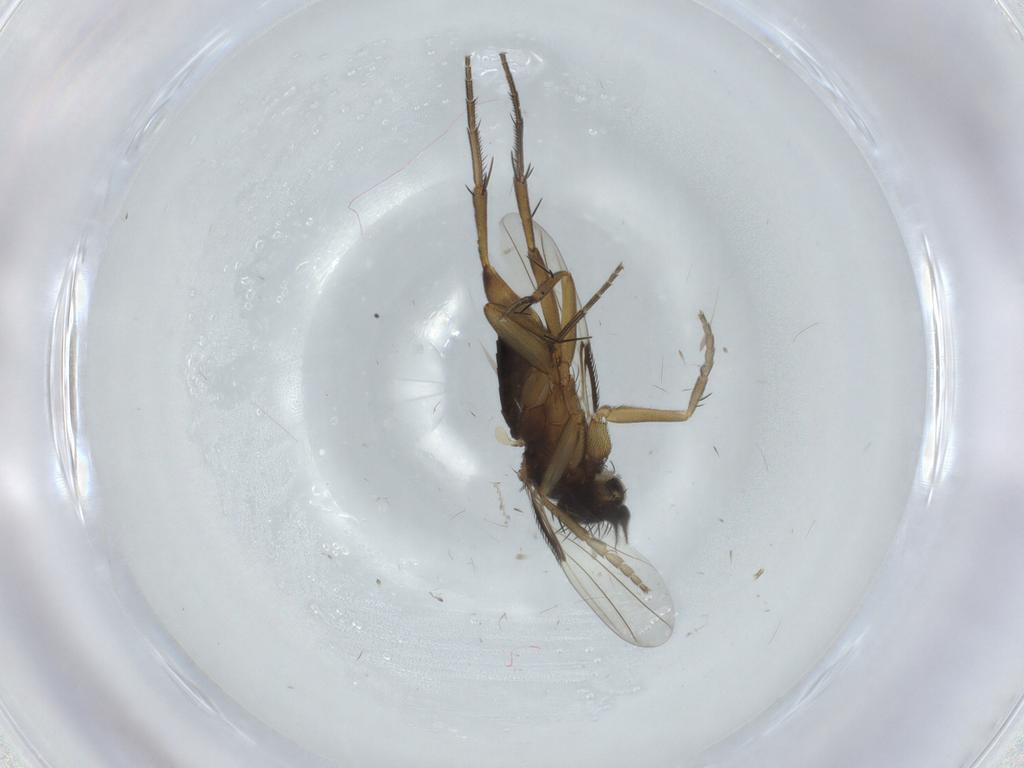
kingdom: Animalia
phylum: Arthropoda
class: Insecta
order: Diptera
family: Phoridae
